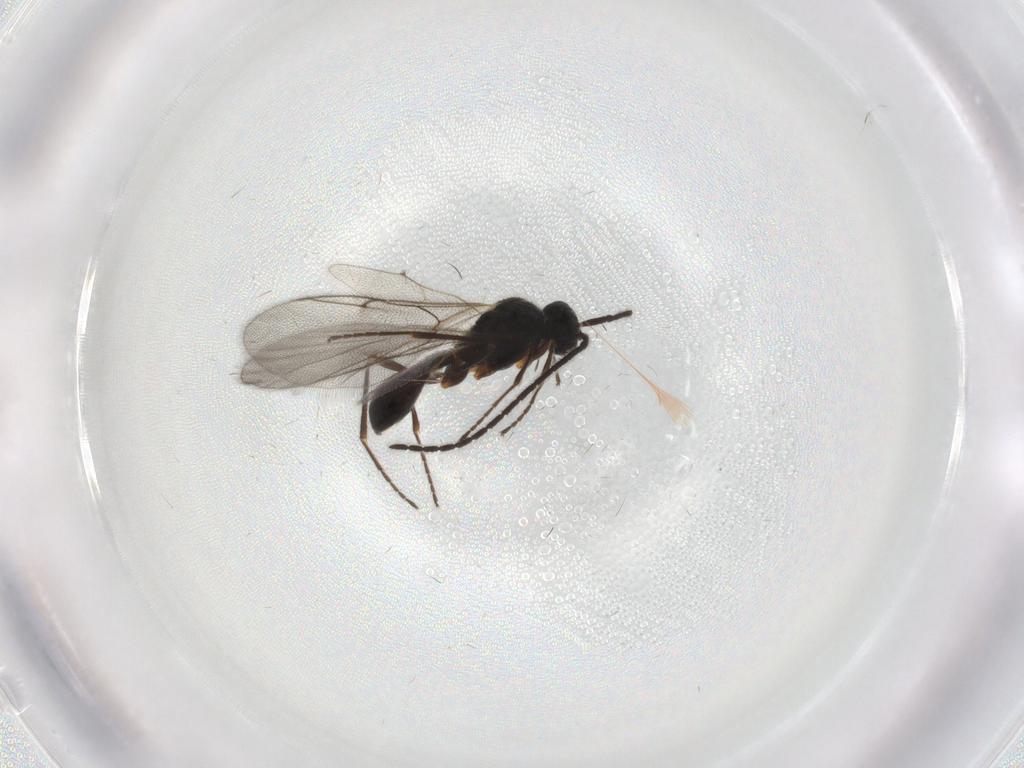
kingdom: Animalia
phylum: Arthropoda
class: Insecta
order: Hymenoptera
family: Diapriidae
